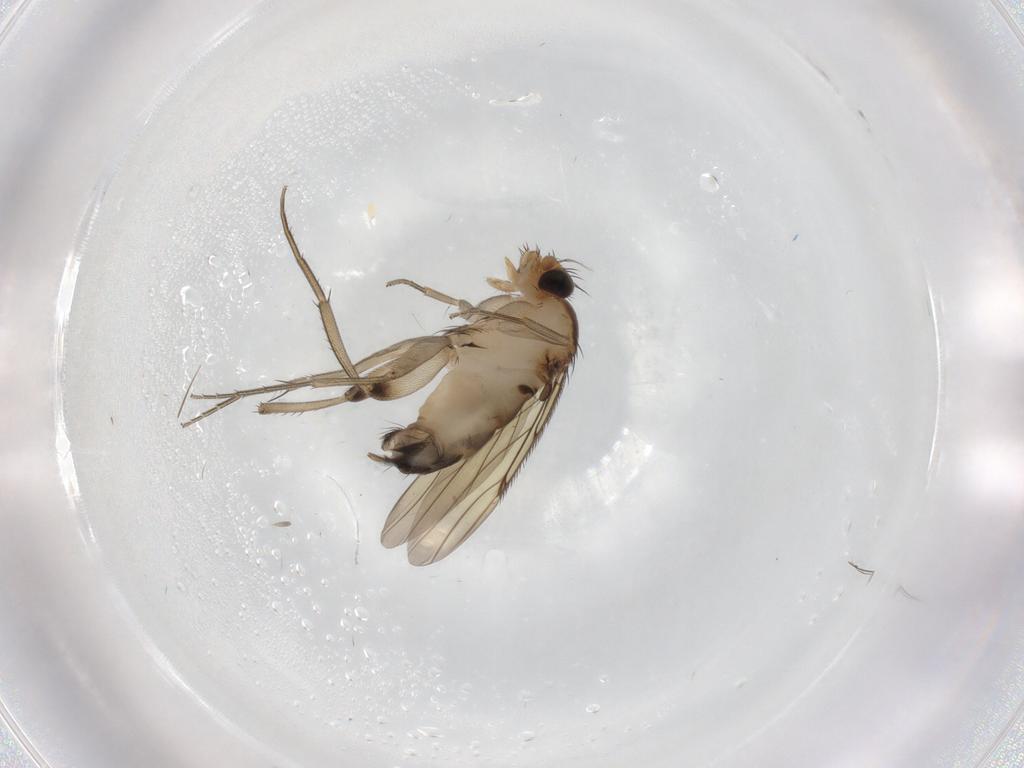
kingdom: Animalia
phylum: Arthropoda
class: Insecta
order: Diptera
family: Phoridae
